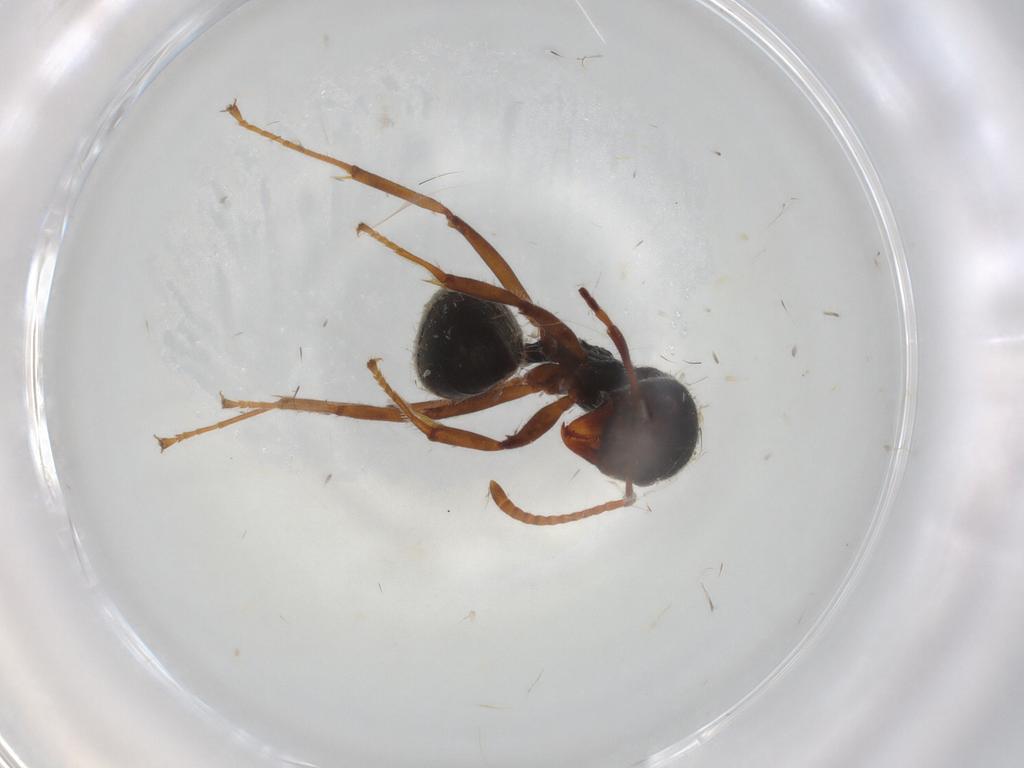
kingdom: Animalia
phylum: Arthropoda
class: Insecta
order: Hymenoptera
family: Formicidae
